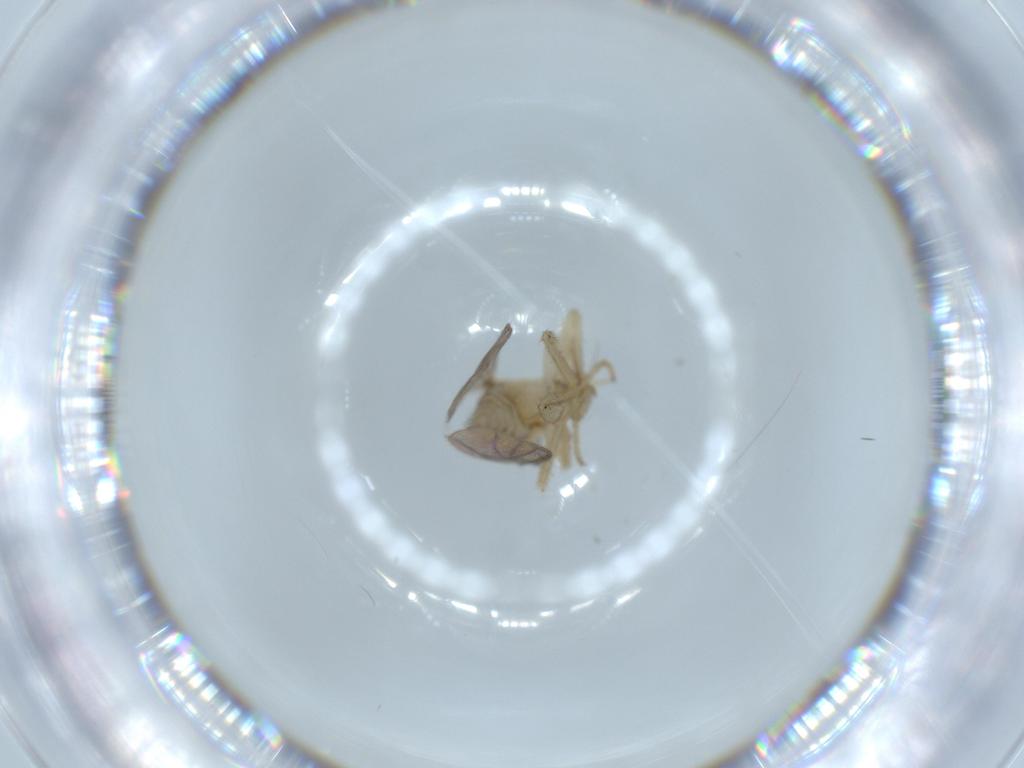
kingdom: Animalia
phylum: Arthropoda
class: Insecta
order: Diptera
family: Hybotidae
